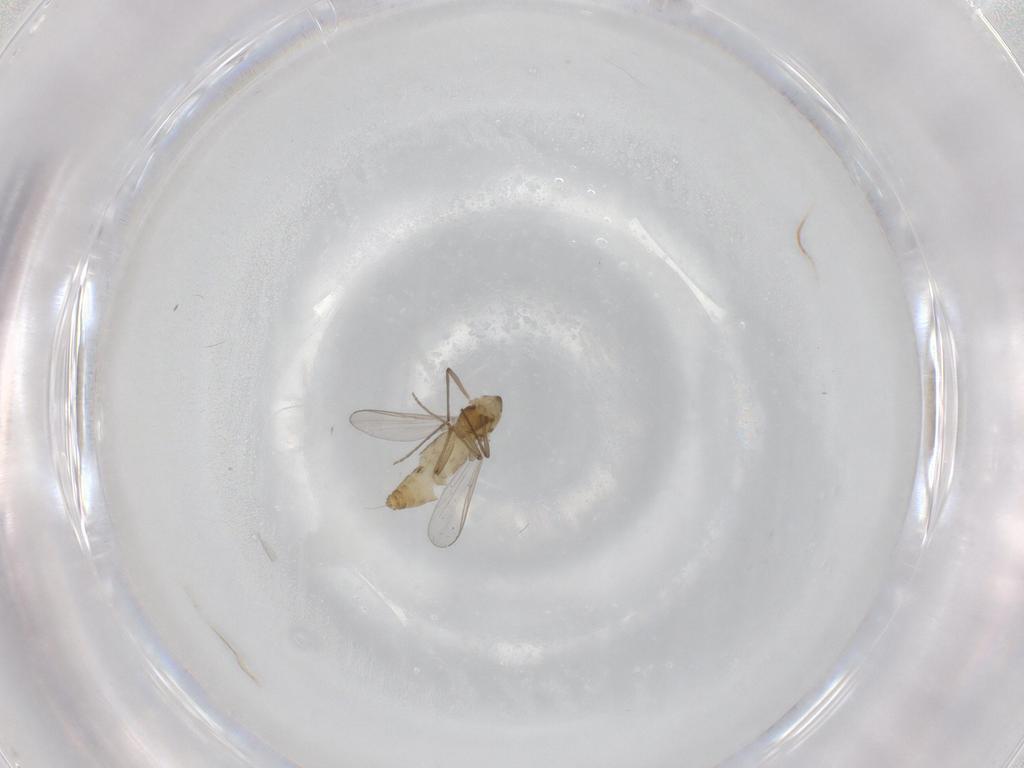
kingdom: Animalia
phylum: Arthropoda
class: Insecta
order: Diptera
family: Cecidomyiidae
